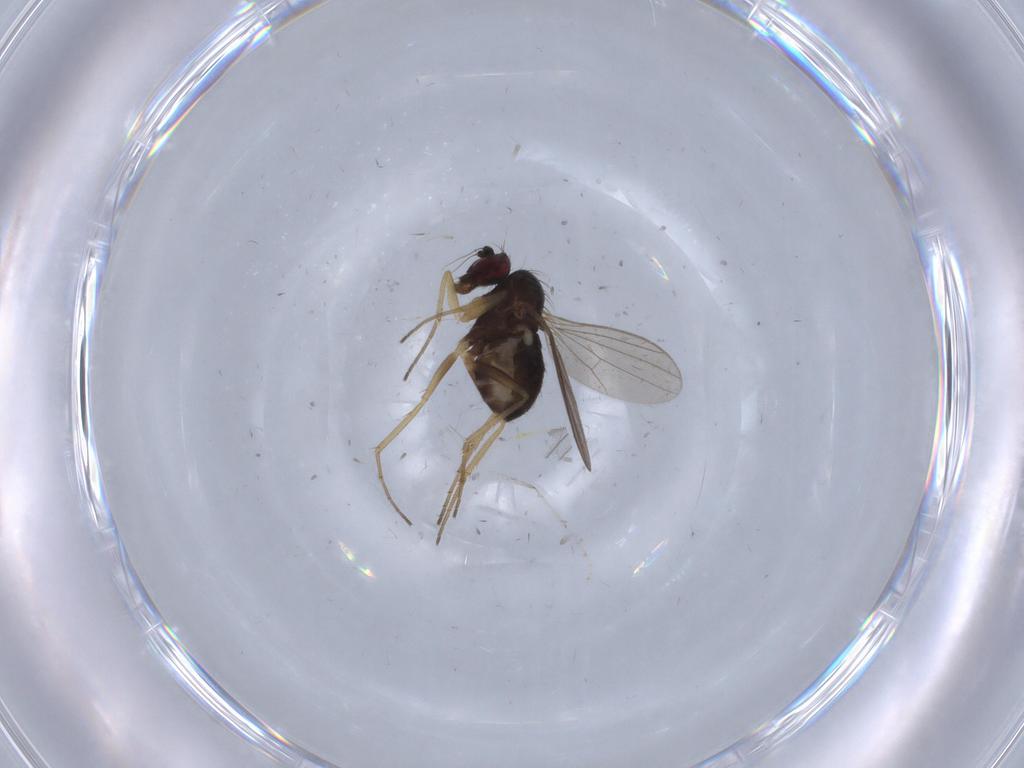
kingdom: Animalia
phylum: Arthropoda
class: Insecta
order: Diptera
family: Dolichopodidae
